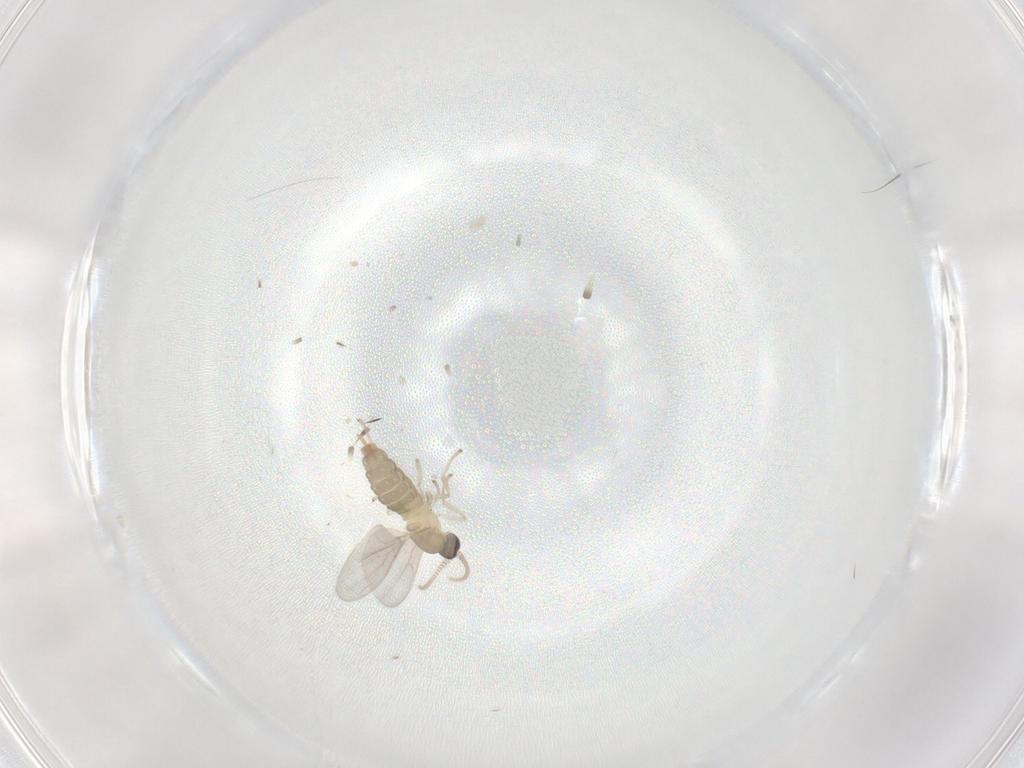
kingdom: Animalia
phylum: Arthropoda
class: Insecta
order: Diptera
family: Cecidomyiidae
